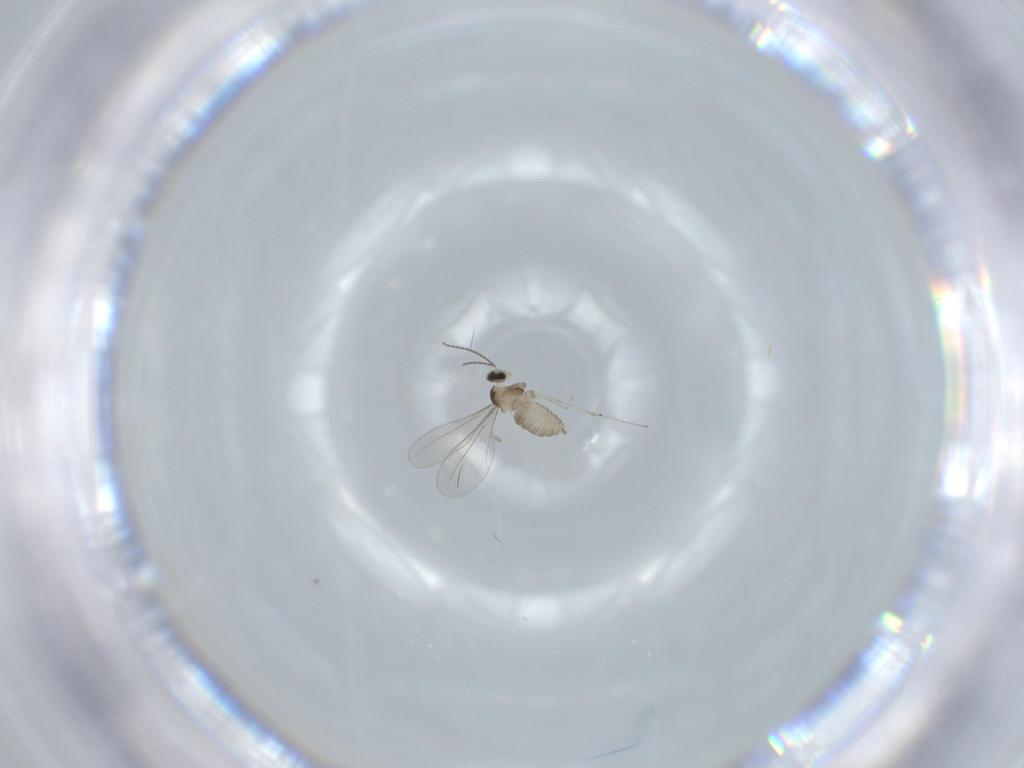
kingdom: Animalia
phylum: Arthropoda
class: Insecta
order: Diptera
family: Cecidomyiidae
